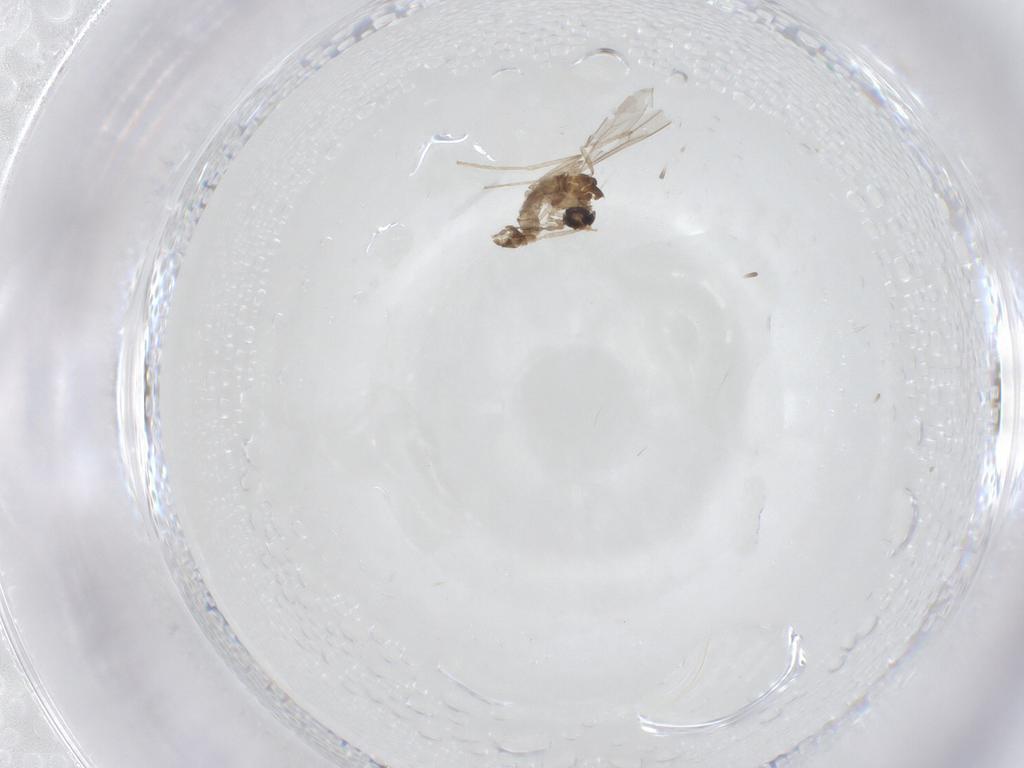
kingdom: Animalia
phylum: Arthropoda
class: Insecta
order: Diptera
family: Cecidomyiidae
